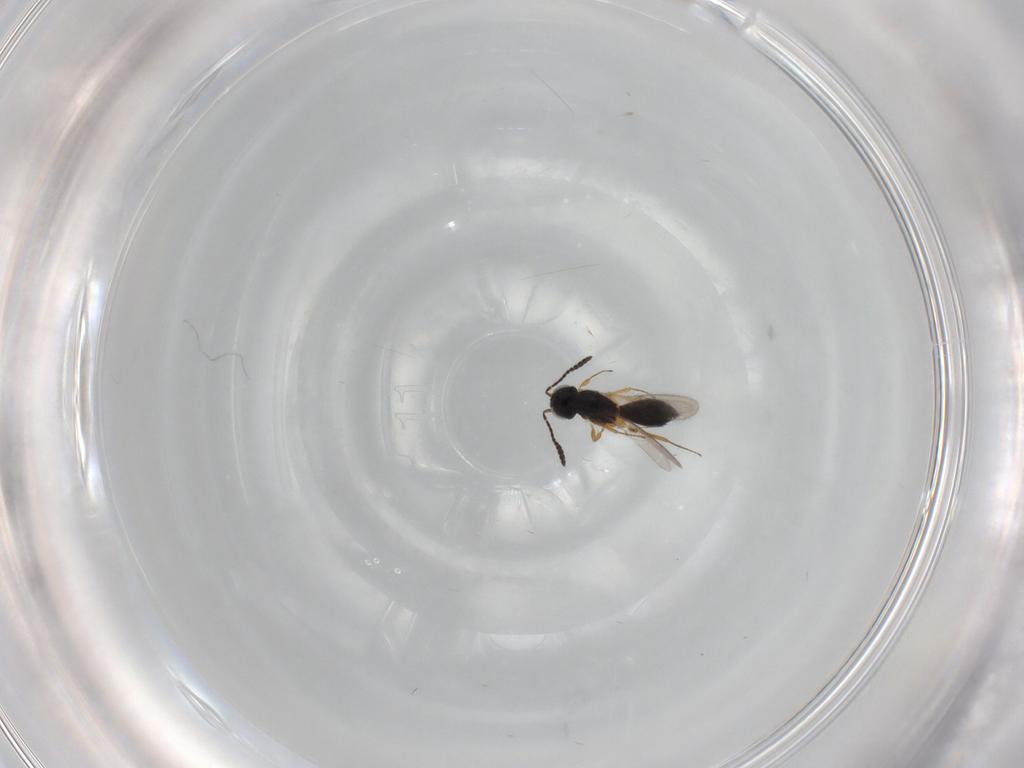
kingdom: Animalia
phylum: Arthropoda
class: Insecta
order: Hymenoptera
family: Scelionidae
